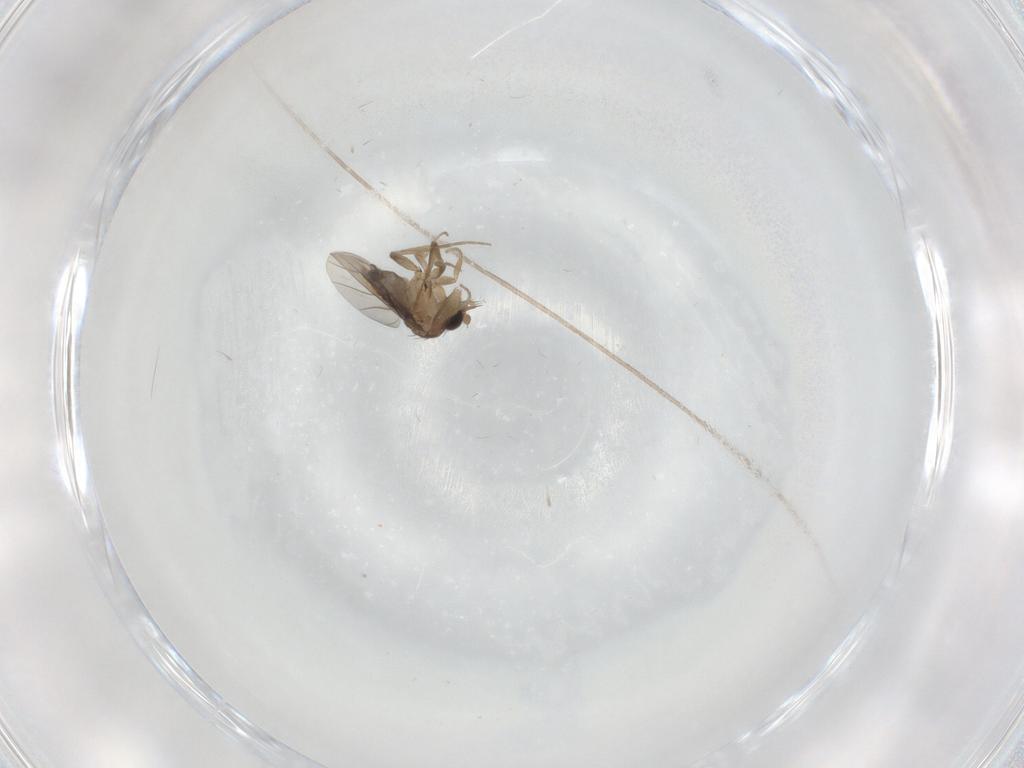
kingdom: Animalia
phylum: Arthropoda
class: Insecta
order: Diptera
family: Phoridae
